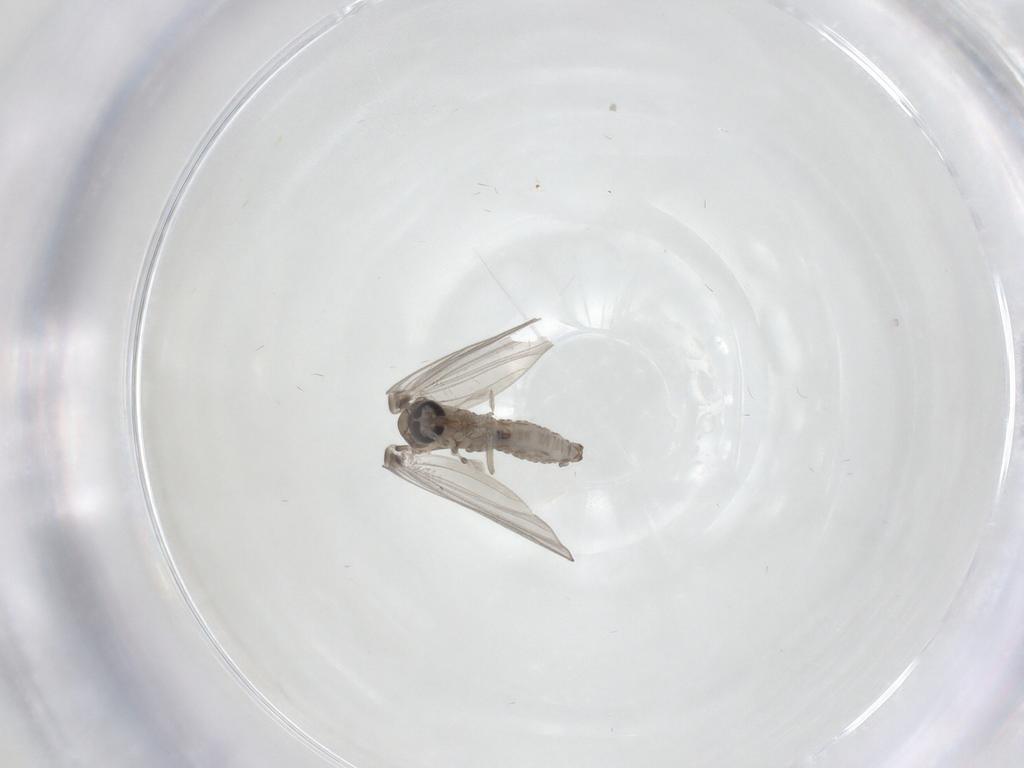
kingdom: Animalia
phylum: Arthropoda
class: Insecta
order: Diptera
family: Psychodidae
